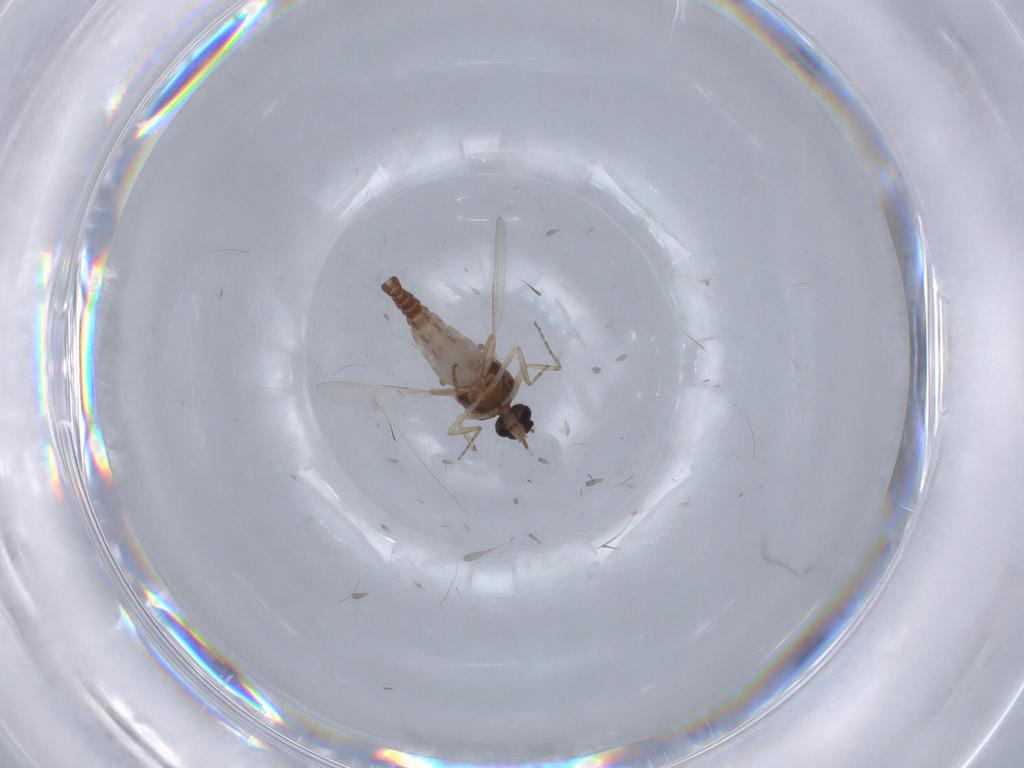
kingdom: Animalia
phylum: Arthropoda
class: Insecta
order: Diptera
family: Ceratopogonidae
